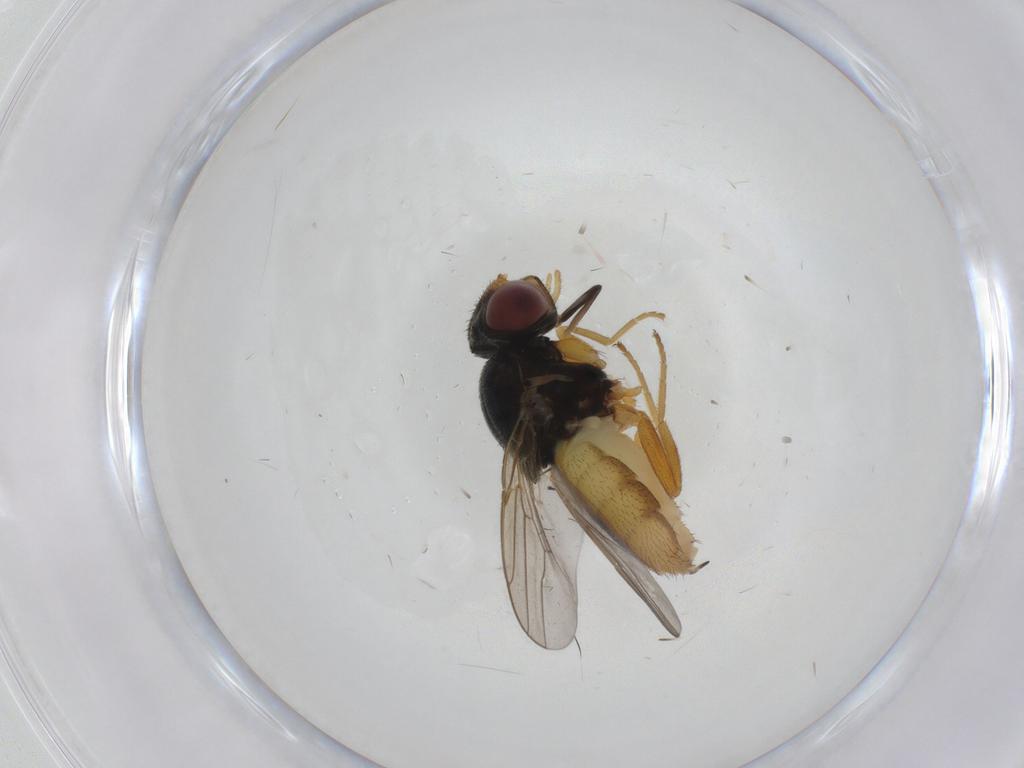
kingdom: Animalia
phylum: Arthropoda
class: Insecta
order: Diptera
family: Chloropidae
